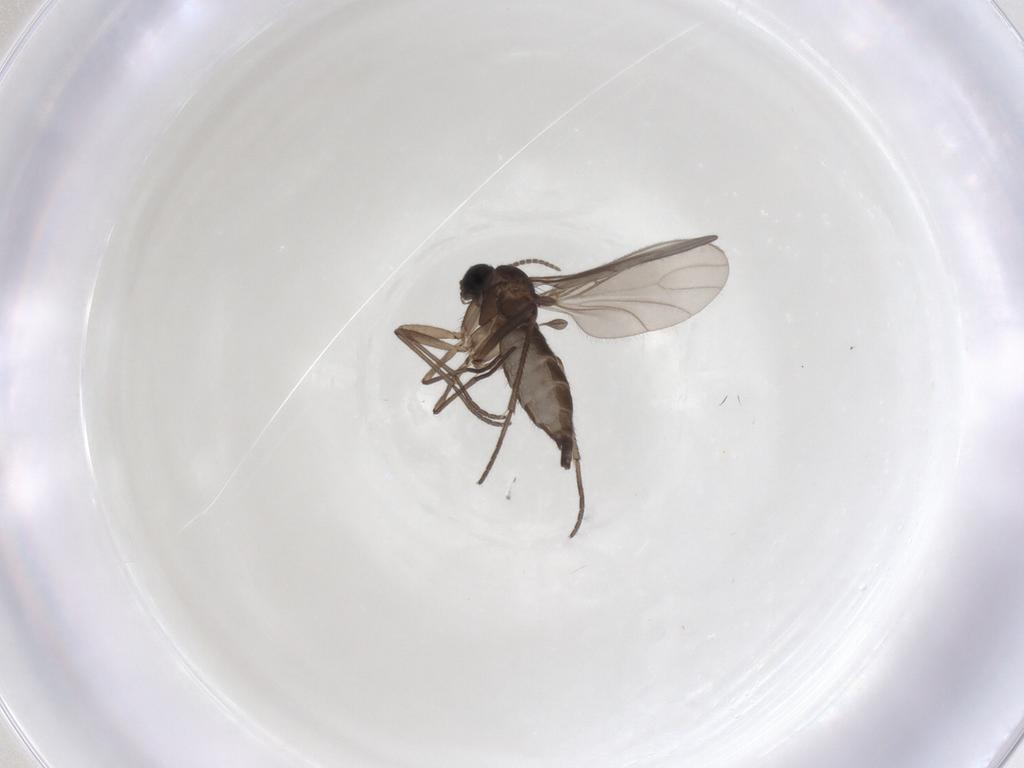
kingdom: Animalia
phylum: Arthropoda
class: Insecta
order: Diptera
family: Sciaridae
